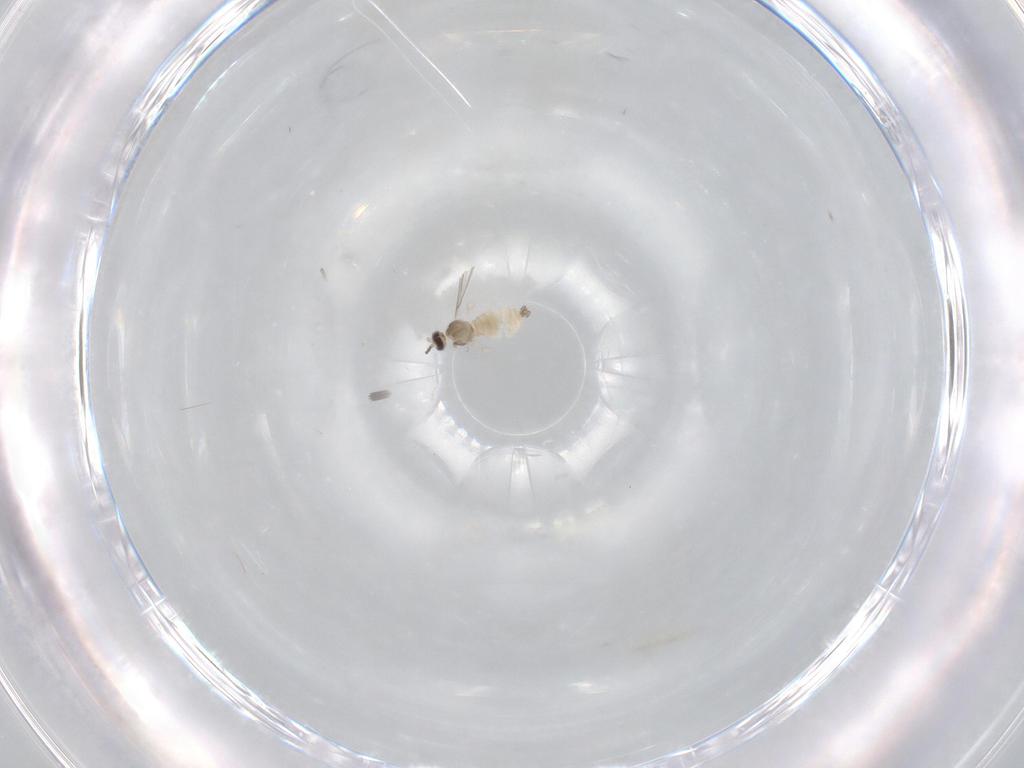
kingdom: Animalia
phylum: Arthropoda
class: Insecta
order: Diptera
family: Cecidomyiidae
